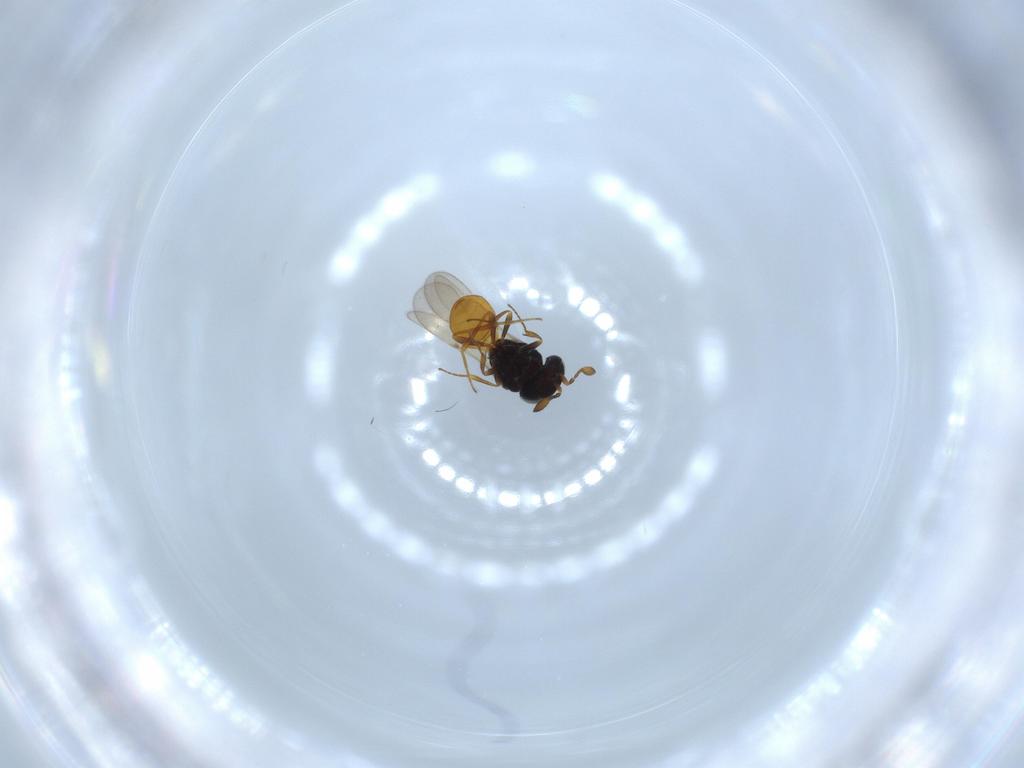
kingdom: Animalia
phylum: Arthropoda
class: Insecta
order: Hymenoptera
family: Scelionidae
